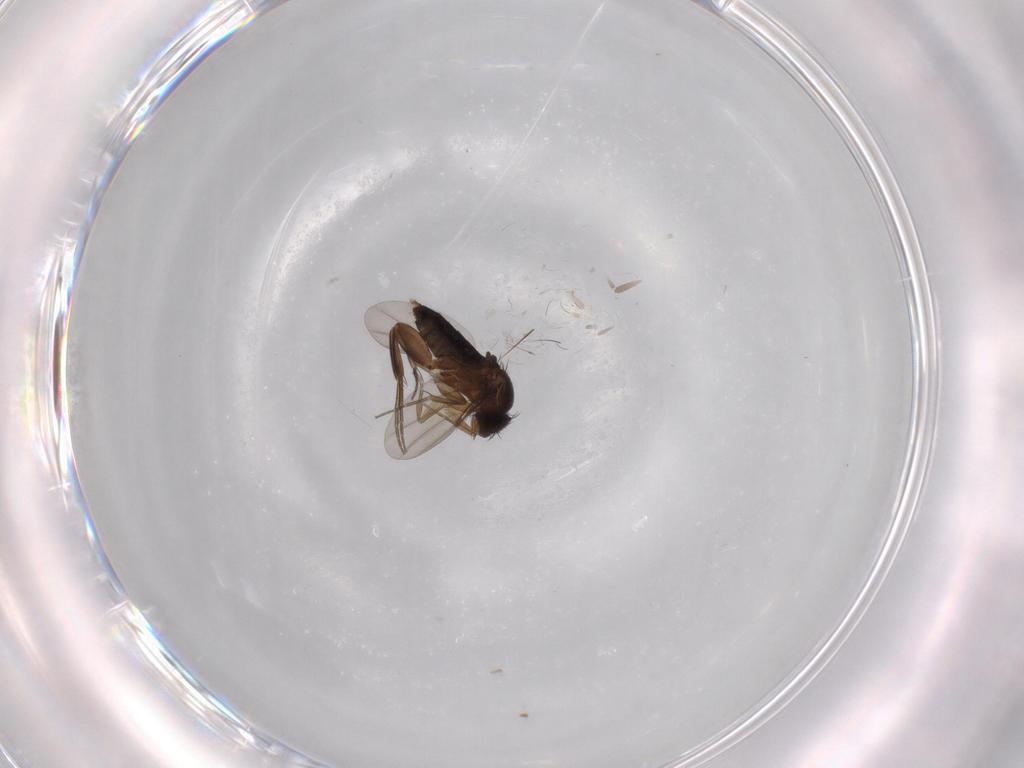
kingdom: Animalia
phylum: Arthropoda
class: Insecta
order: Diptera
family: Phoridae
